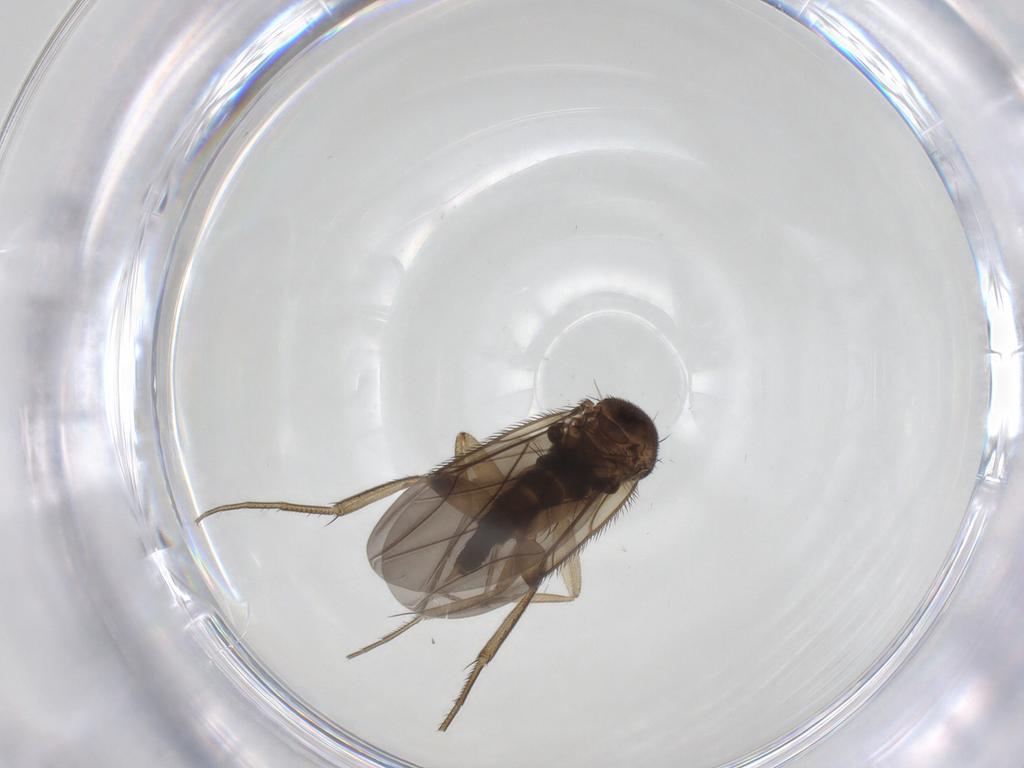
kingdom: Animalia
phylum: Arthropoda
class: Insecta
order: Diptera
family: Phoridae
